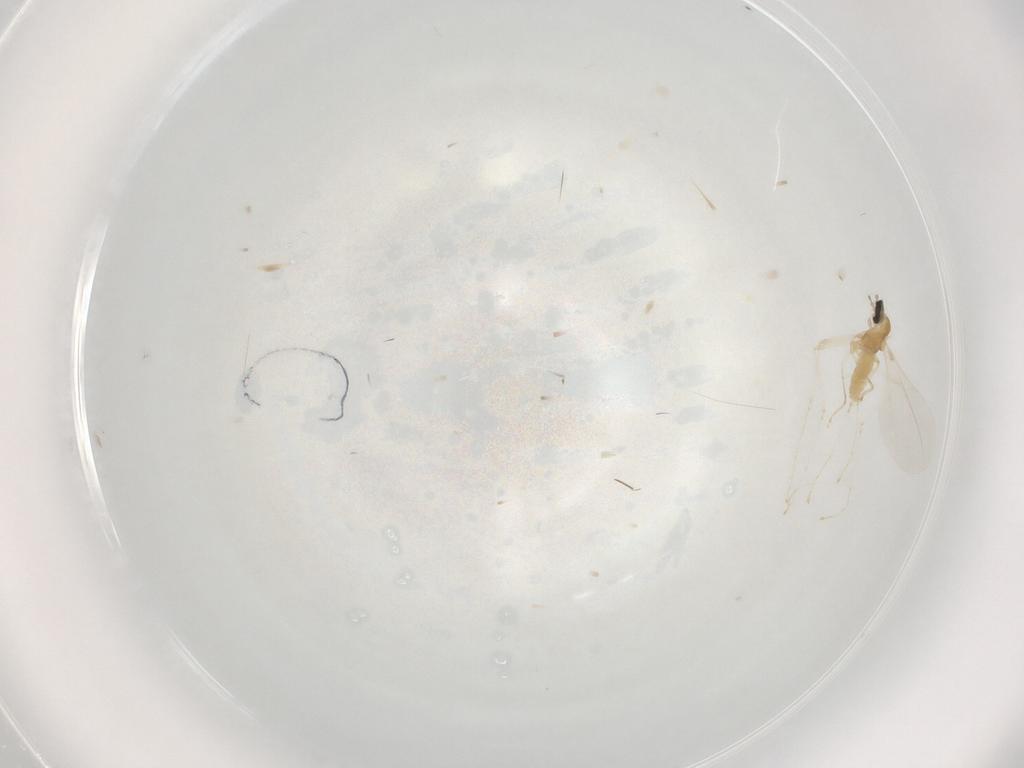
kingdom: Animalia
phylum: Arthropoda
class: Insecta
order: Diptera
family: Cecidomyiidae
